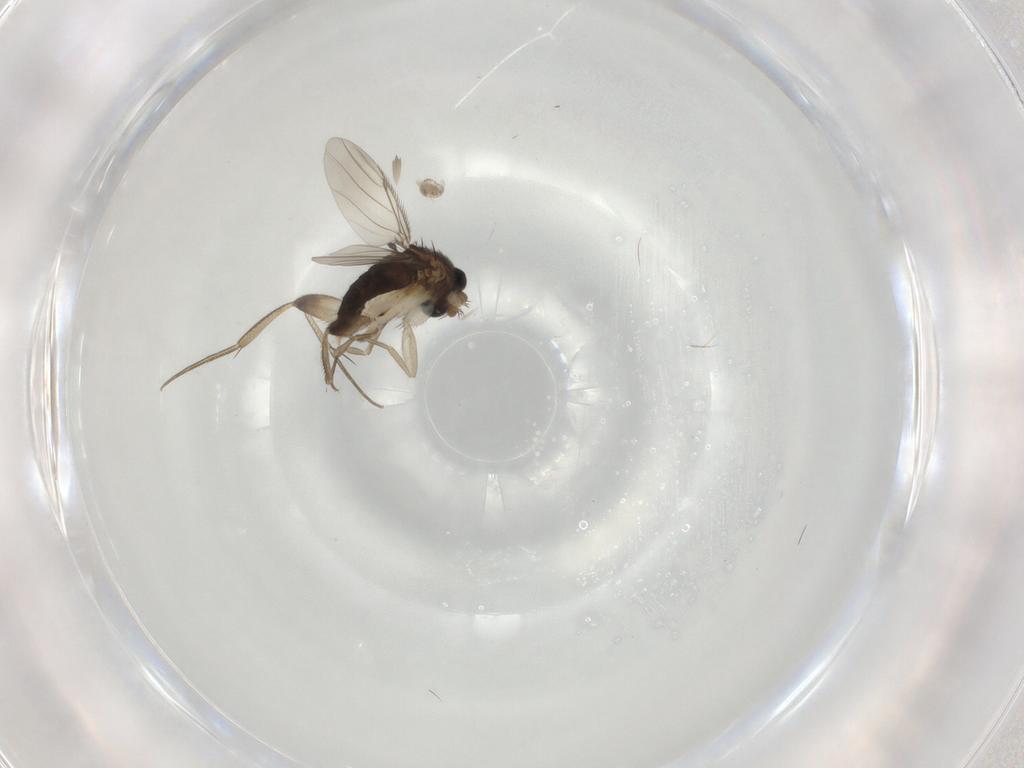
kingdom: Animalia
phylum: Arthropoda
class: Insecta
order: Diptera
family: Phoridae
